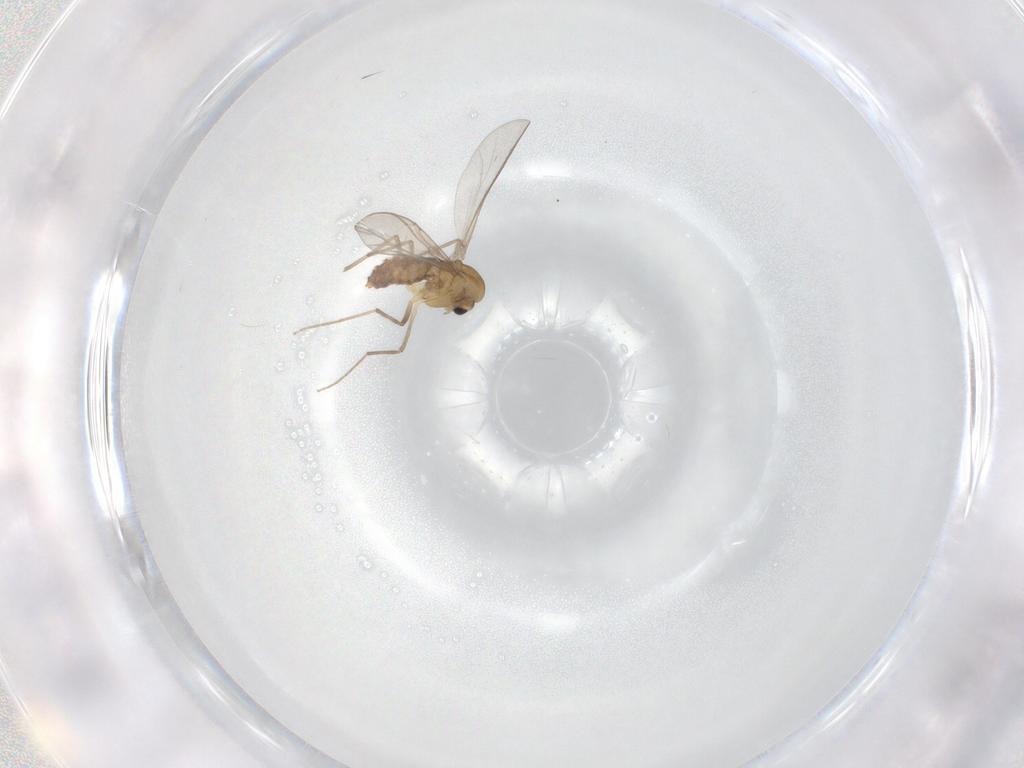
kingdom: Animalia
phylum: Arthropoda
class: Insecta
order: Diptera
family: Chironomidae
